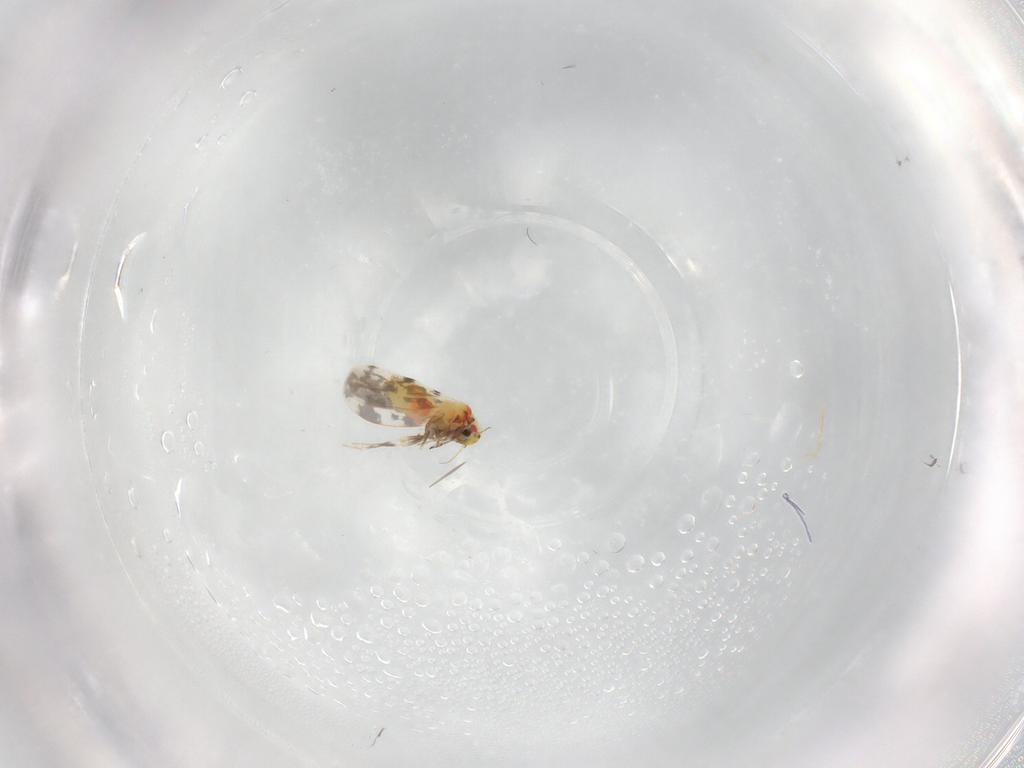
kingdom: Animalia
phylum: Arthropoda
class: Insecta
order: Hemiptera
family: Aleyrodidae
